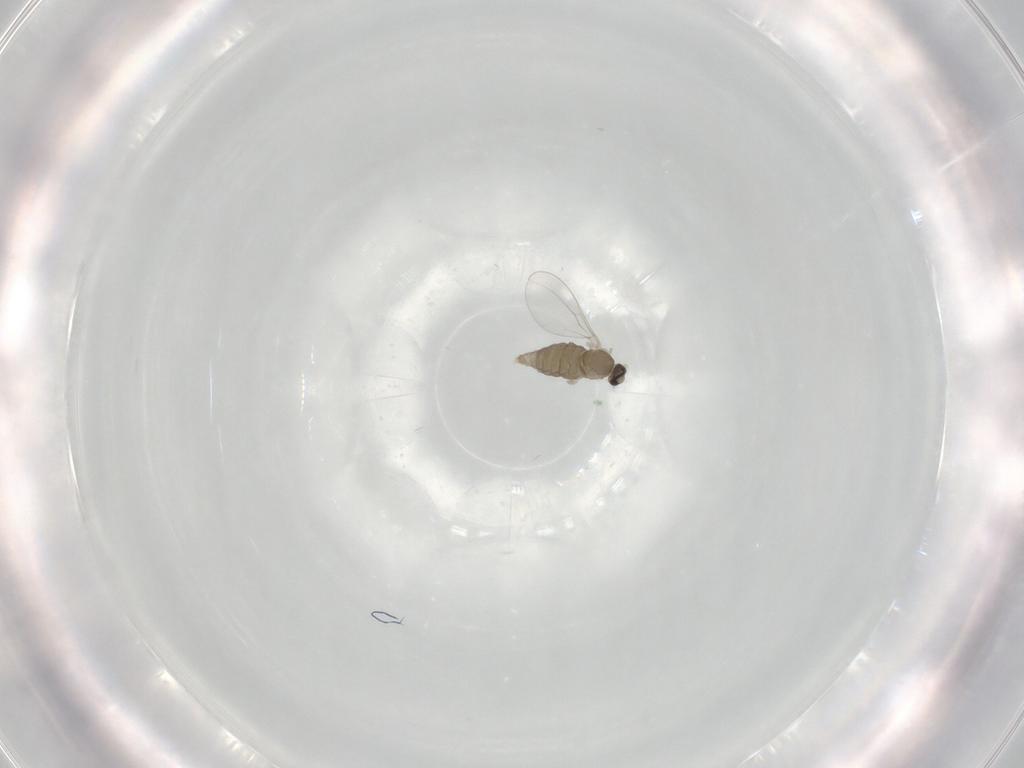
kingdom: Animalia
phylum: Arthropoda
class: Insecta
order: Diptera
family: Cecidomyiidae
